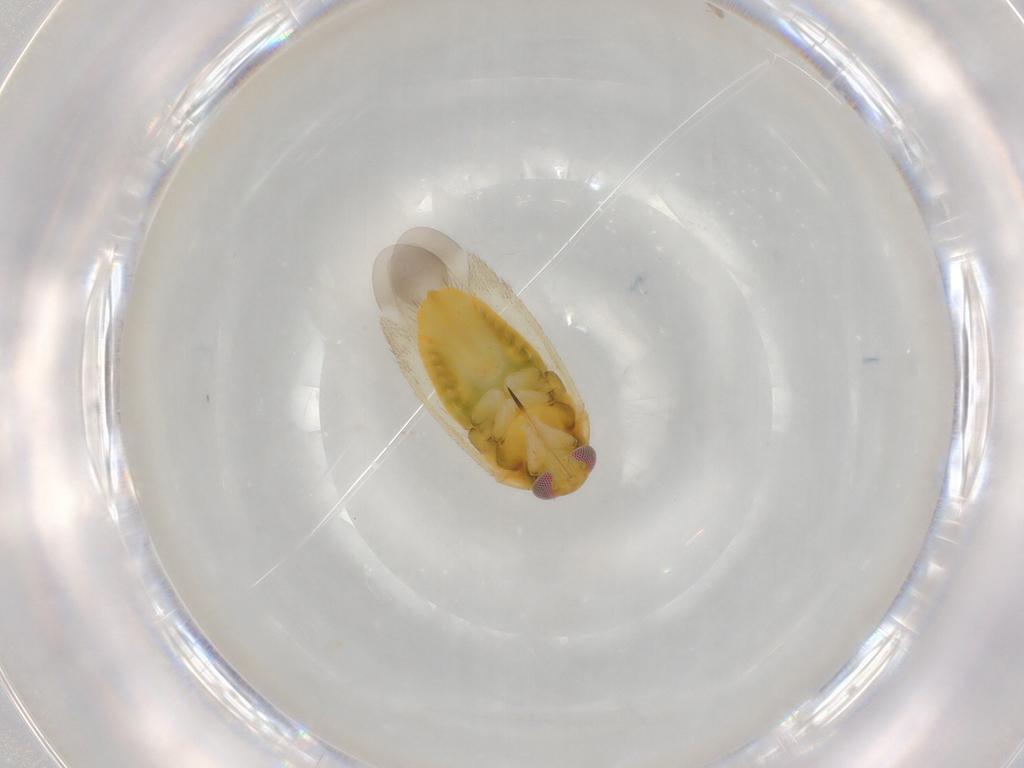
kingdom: Animalia
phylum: Arthropoda
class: Insecta
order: Hemiptera
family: Miridae
